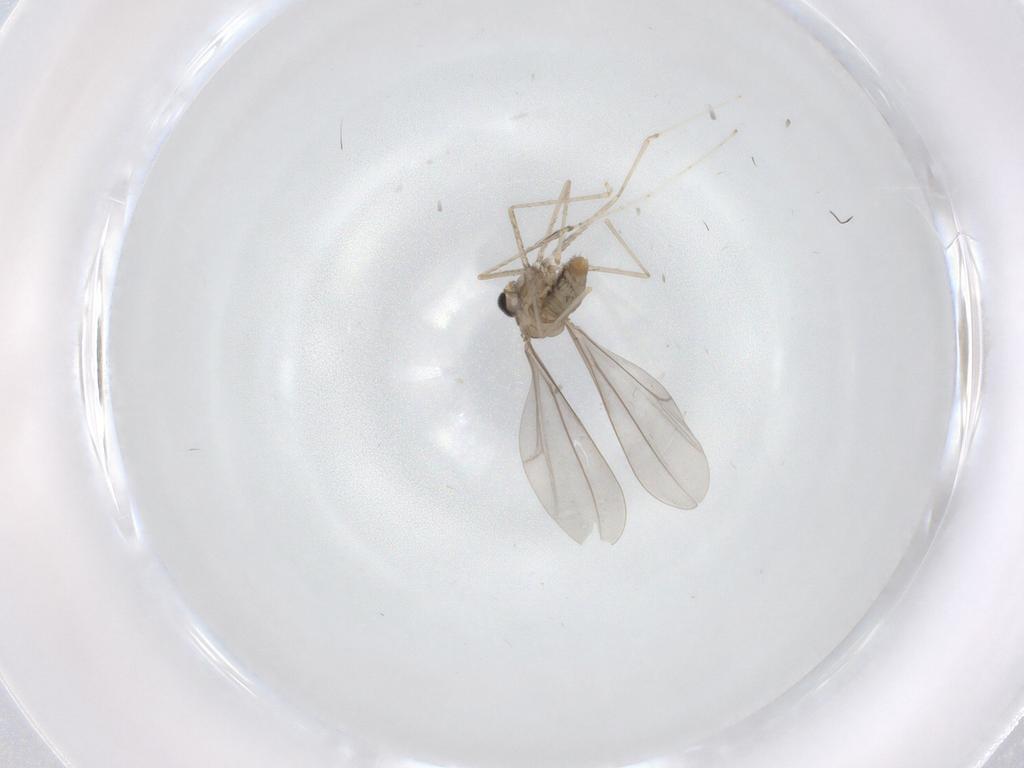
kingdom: Animalia
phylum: Arthropoda
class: Insecta
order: Diptera
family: Cecidomyiidae
